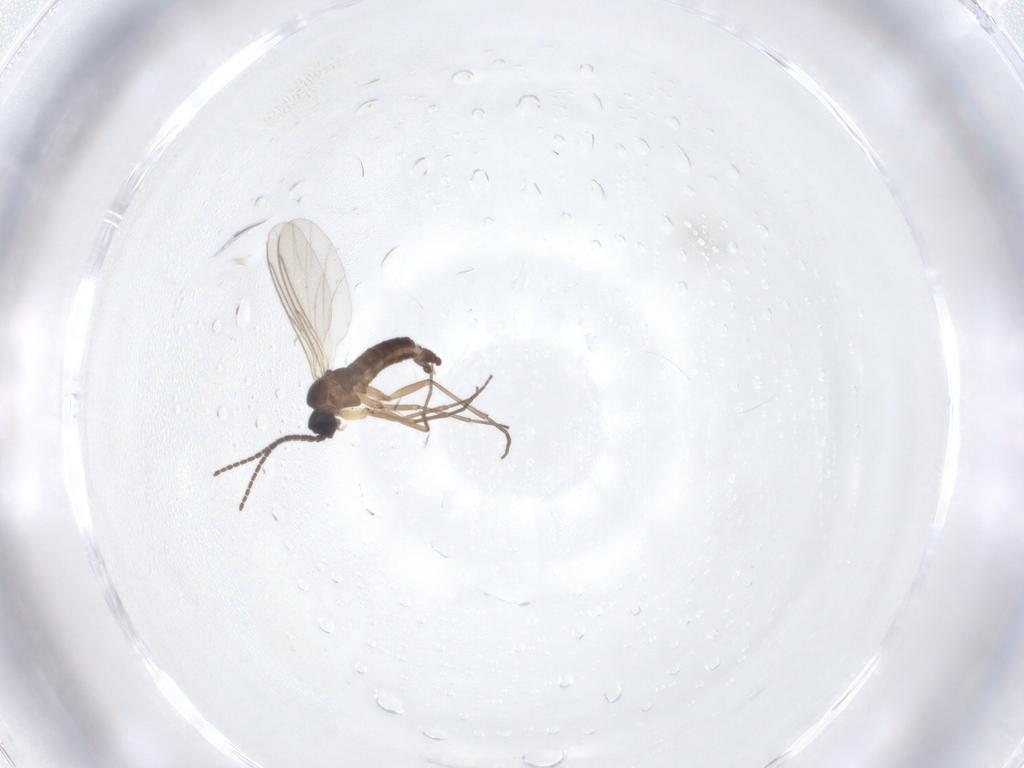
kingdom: Animalia
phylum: Arthropoda
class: Insecta
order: Diptera
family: Sciaridae
